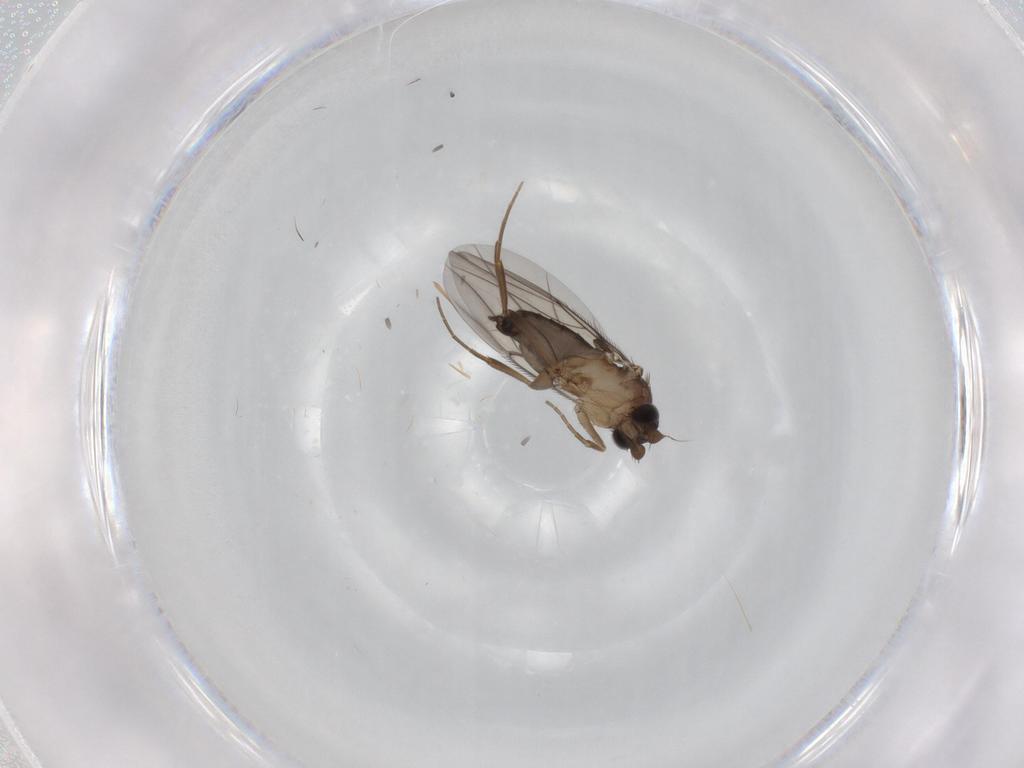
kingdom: Animalia
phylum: Arthropoda
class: Insecta
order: Diptera
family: Phoridae
